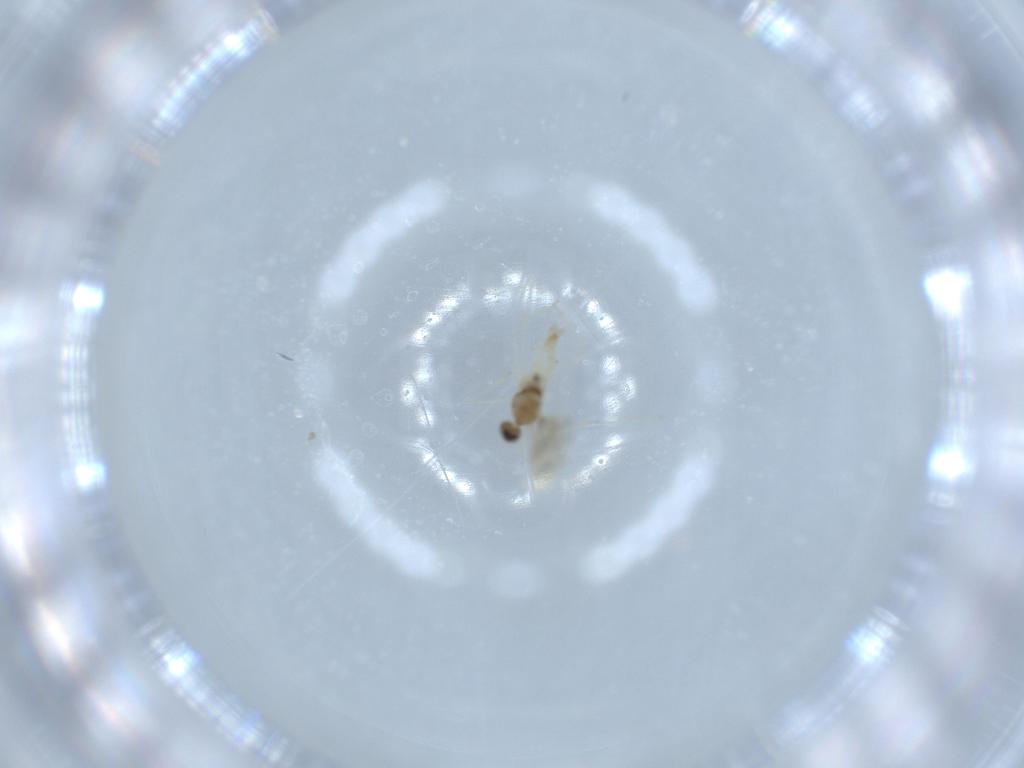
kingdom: Animalia
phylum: Arthropoda
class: Insecta
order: Diptera
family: Cecidomyiidae
